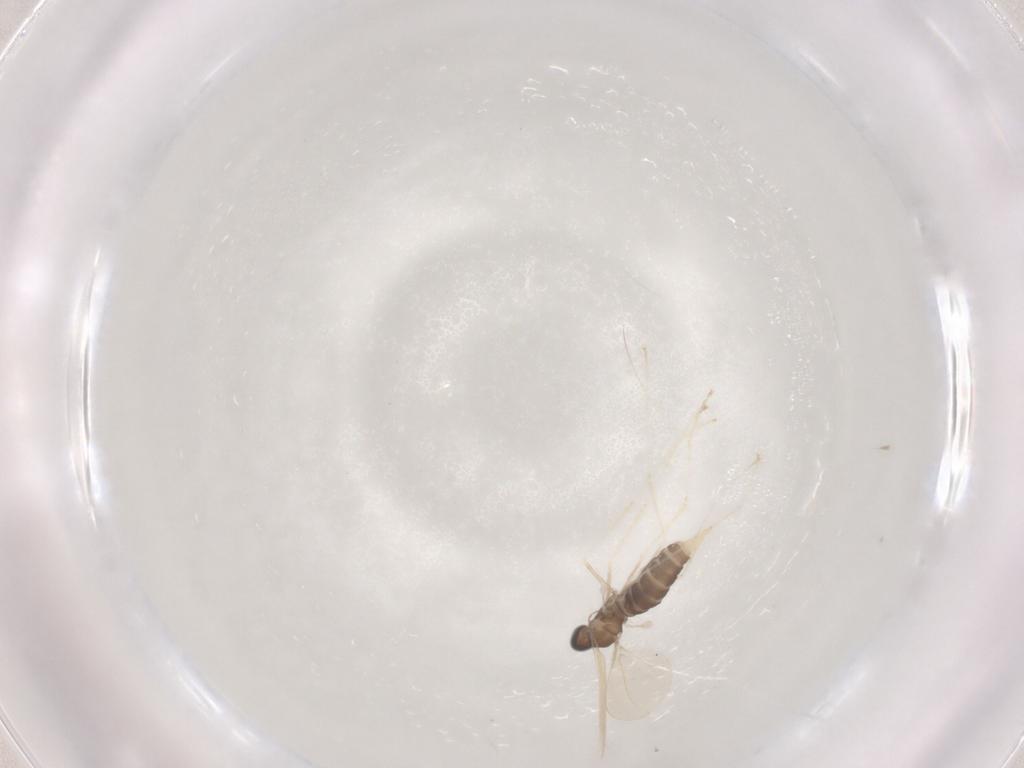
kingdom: Animalia
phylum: Arthropoda
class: Insecta
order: Diptera
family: Cecidomyiidae
